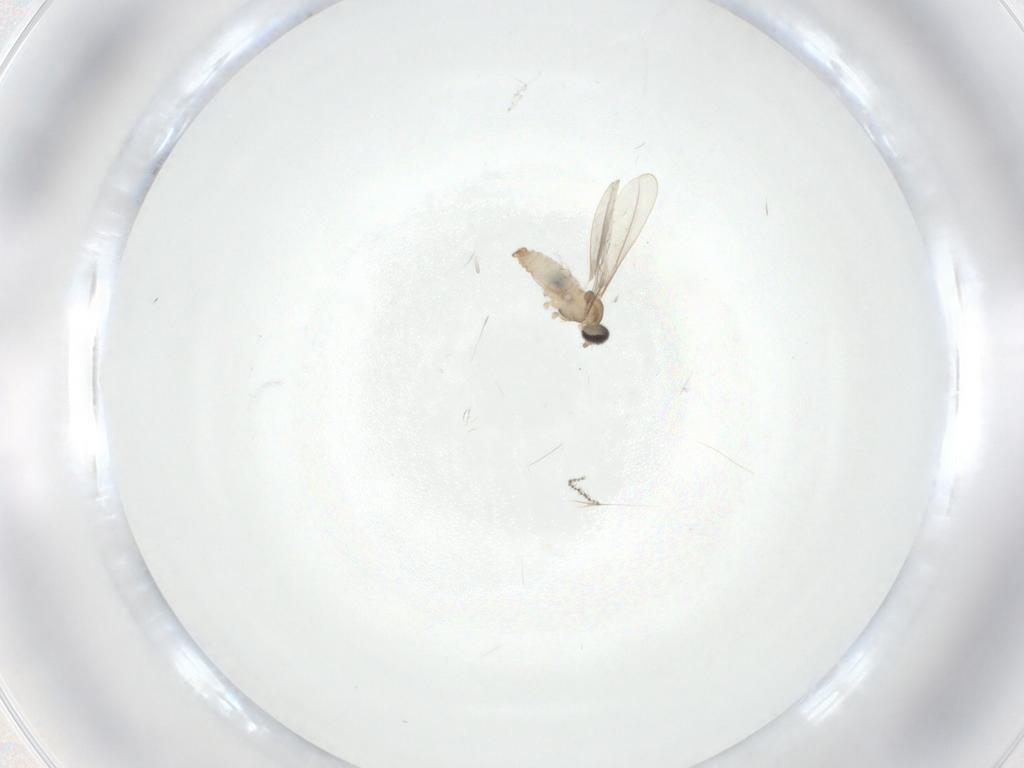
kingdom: Animalia
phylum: Arthropoda
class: Insecta
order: Diptera
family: Cecidomyiidae
